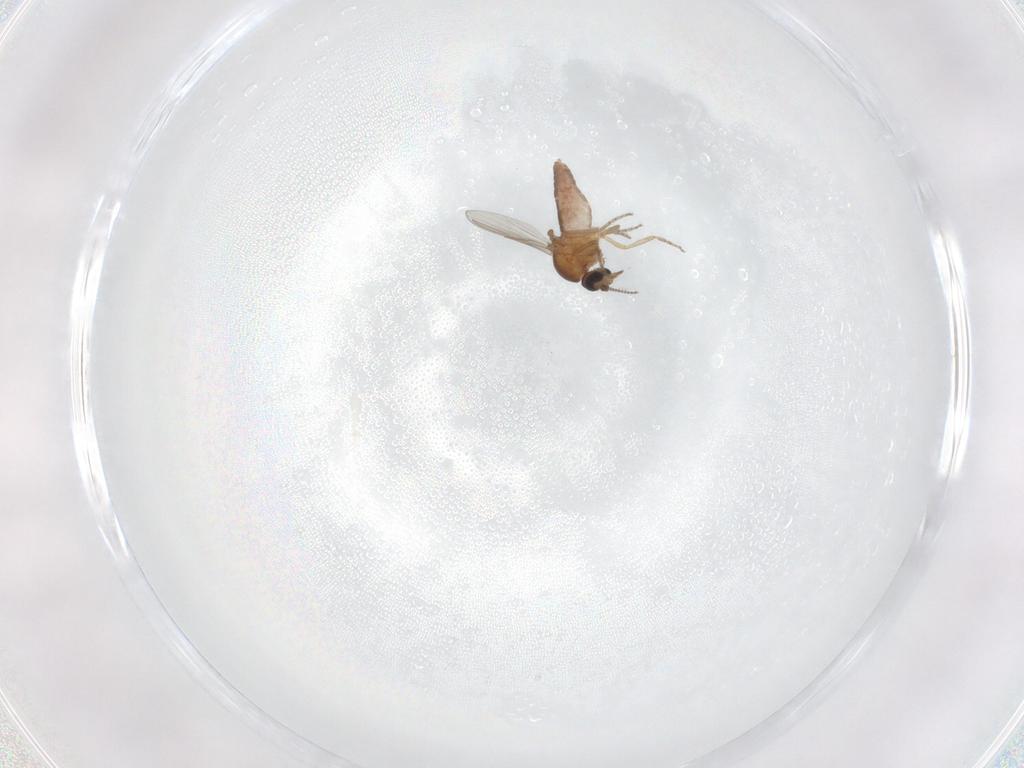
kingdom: Animalia
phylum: Arthropoda
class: Insecta
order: Diptera
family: Ceratopogonidae
